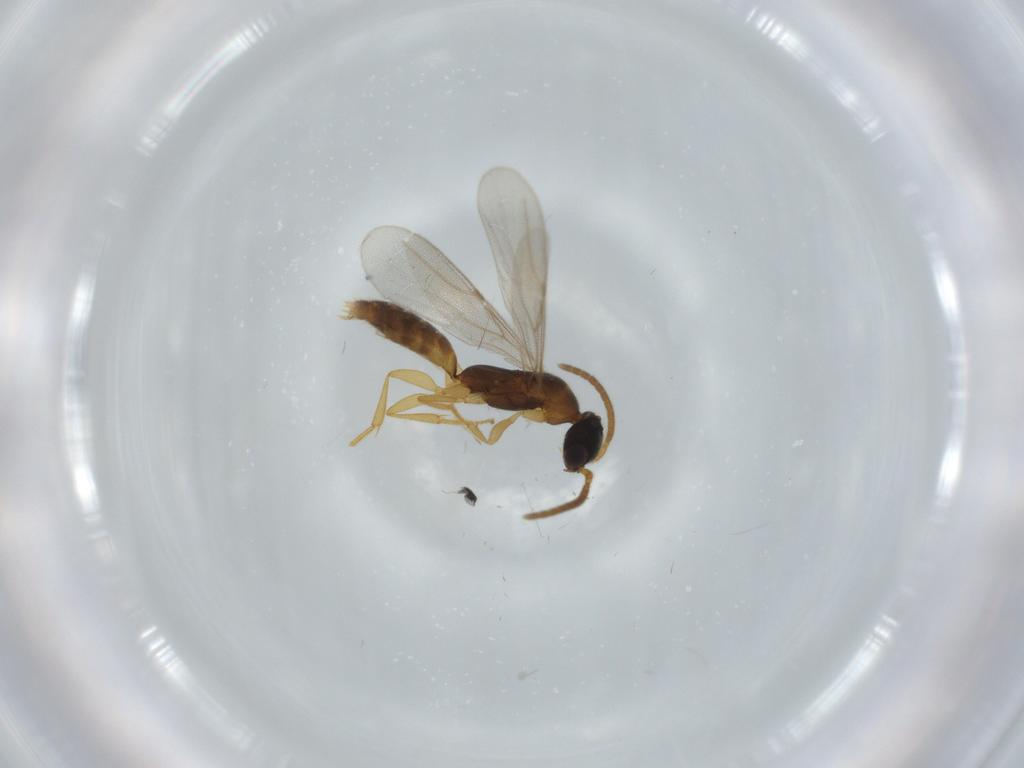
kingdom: Animalia
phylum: Arthropoda
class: Insecta
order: Hymenoptera
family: Bethylidae
